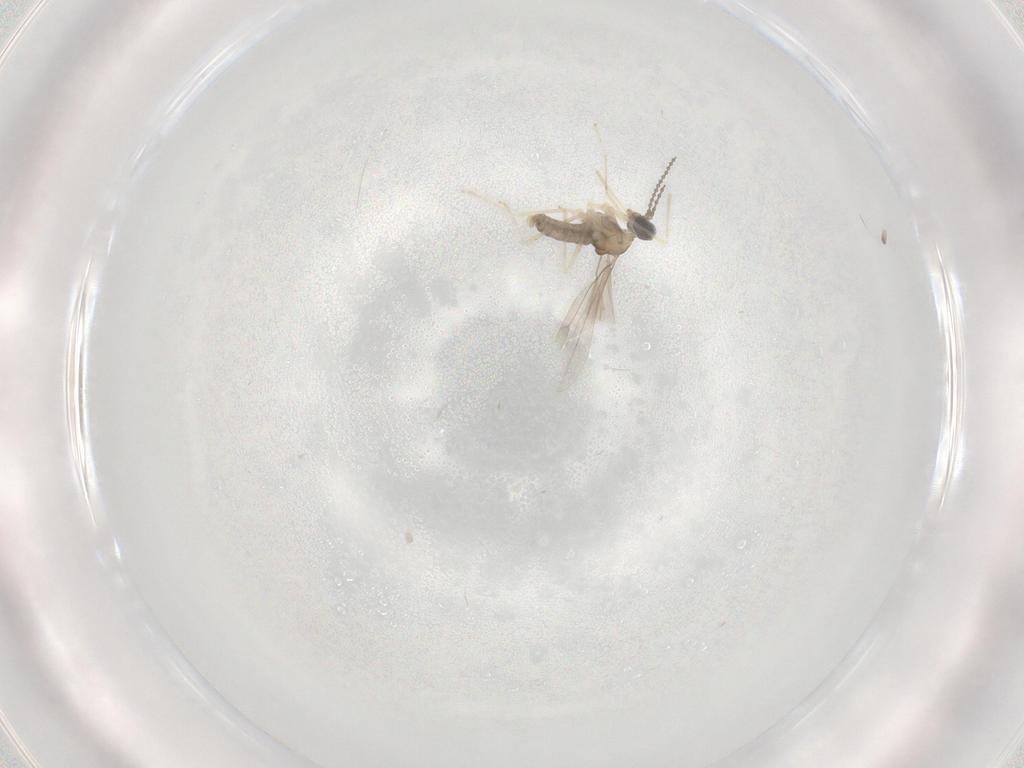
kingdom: Animalia
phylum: Arthropoda
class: Insecta
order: Diptera
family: Cecidomyiidae
